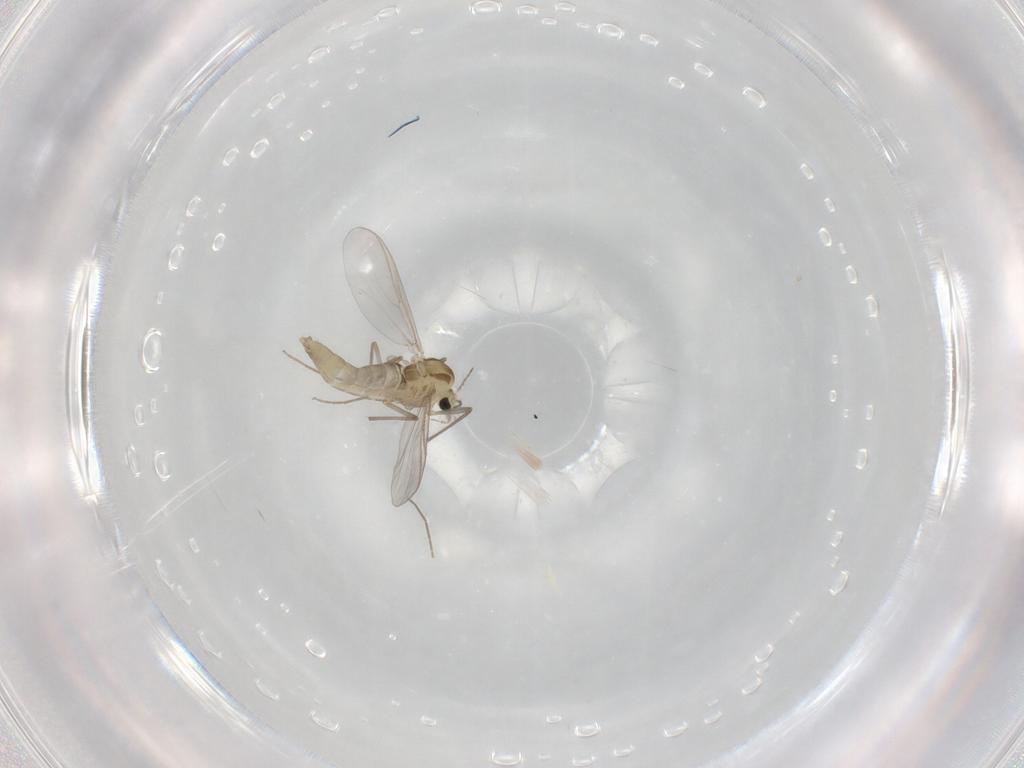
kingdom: Animalia
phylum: Arthropoda
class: Insecta
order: Diptera
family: Chironomidae
